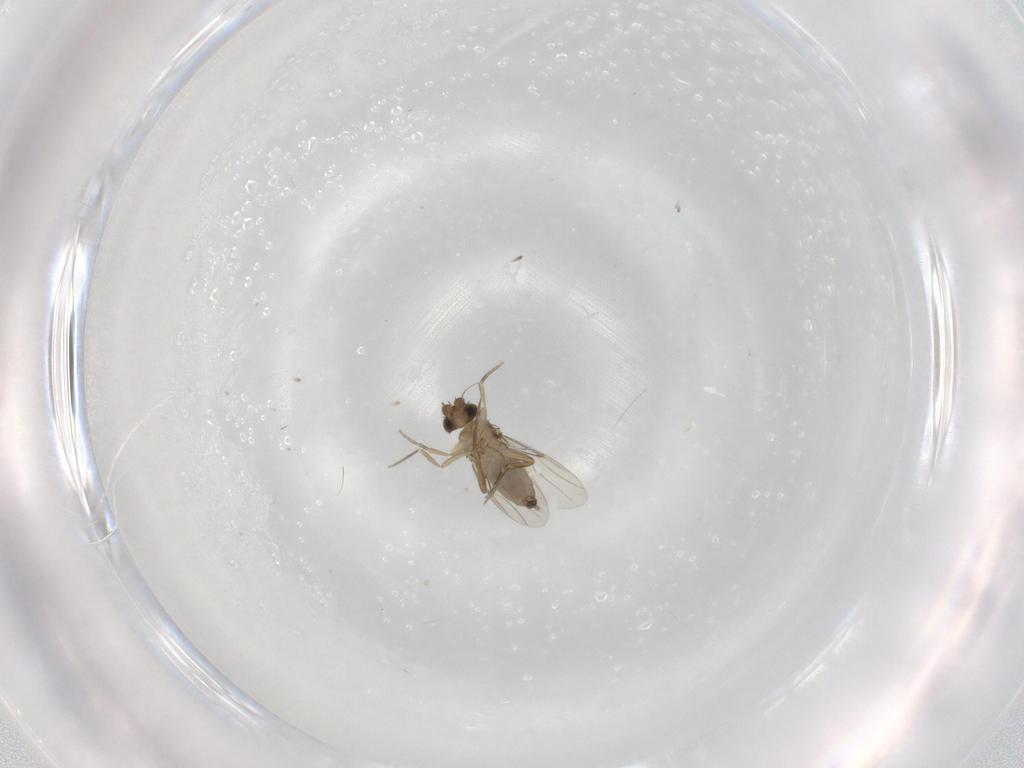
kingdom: Animalia
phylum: Arthropoda
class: Insecta
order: Diptera
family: Phoridae
